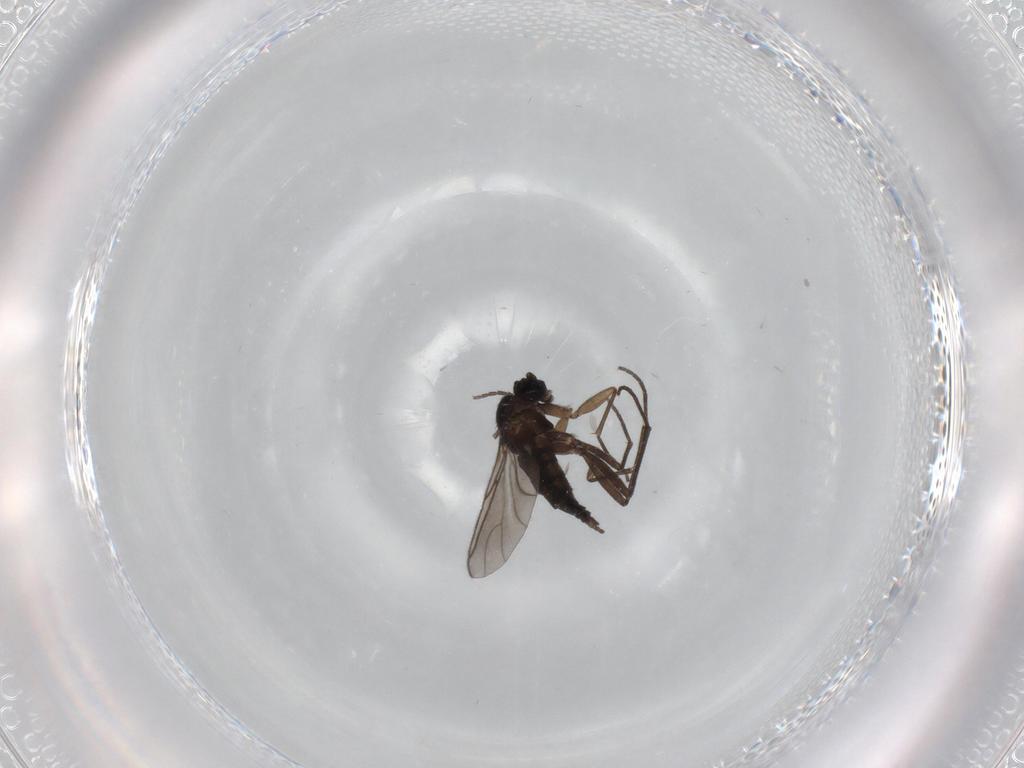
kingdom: Animalia
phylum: Arthropoda
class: Insecta
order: Diptera
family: Sciaridae
